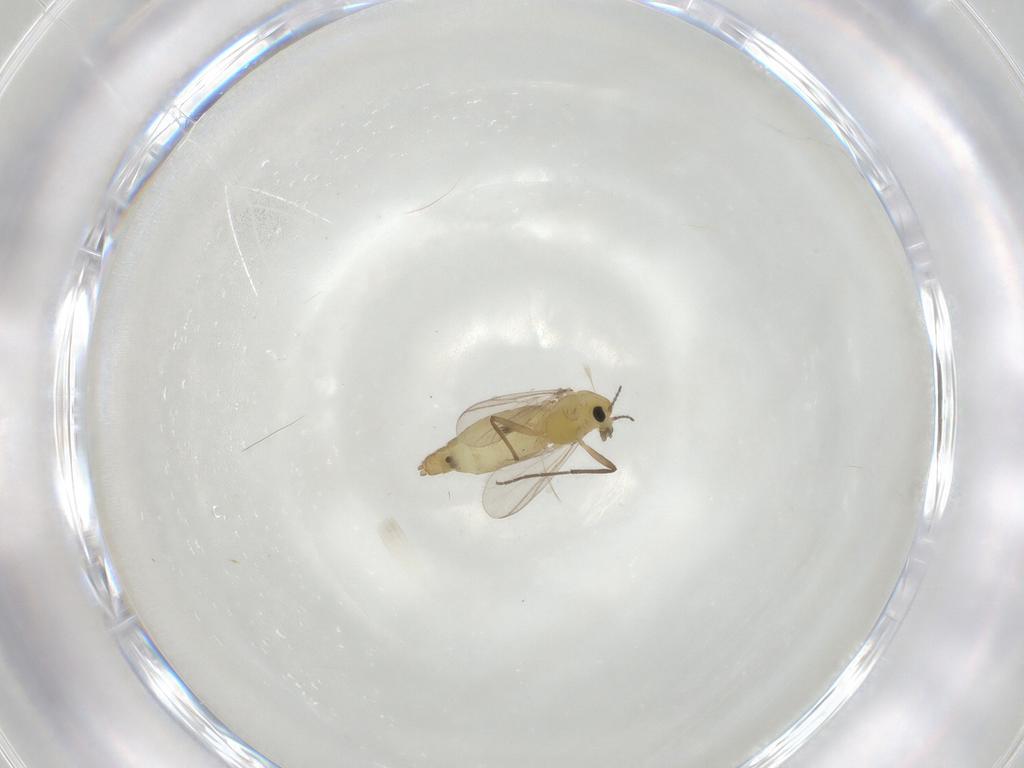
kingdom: Animalia
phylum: Arthropoda
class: Insecta
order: Diptera
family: Chironomidae
